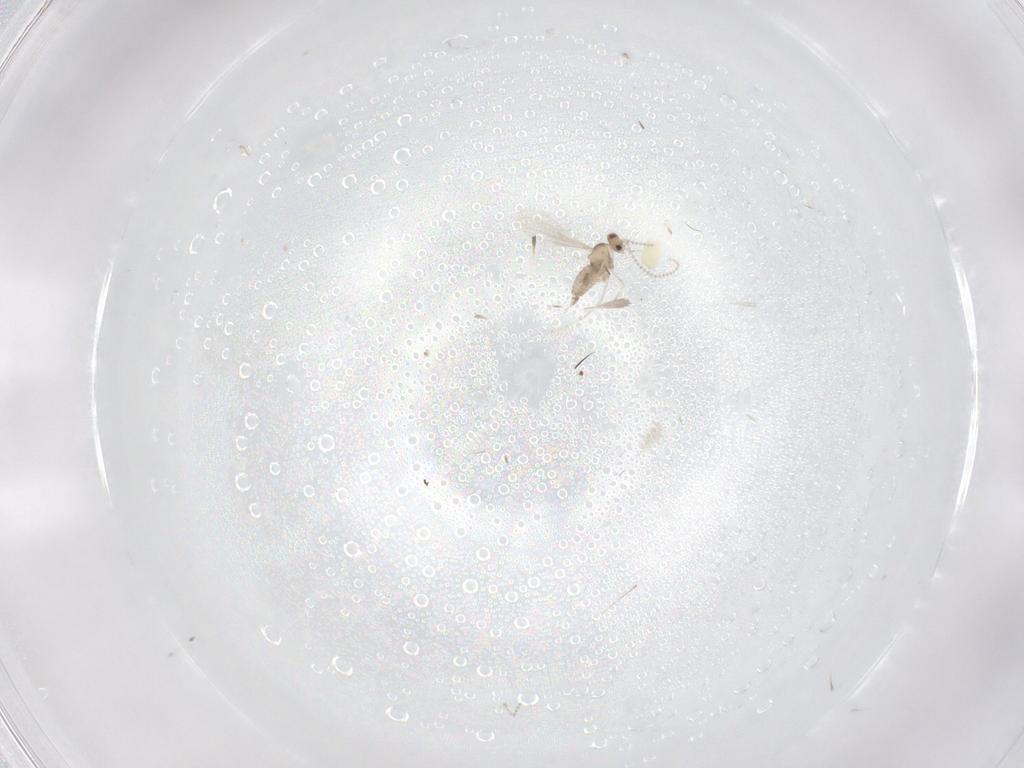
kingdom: Animalia
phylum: Arthropoda
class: Insecta
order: Diptera
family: Sciaridae
